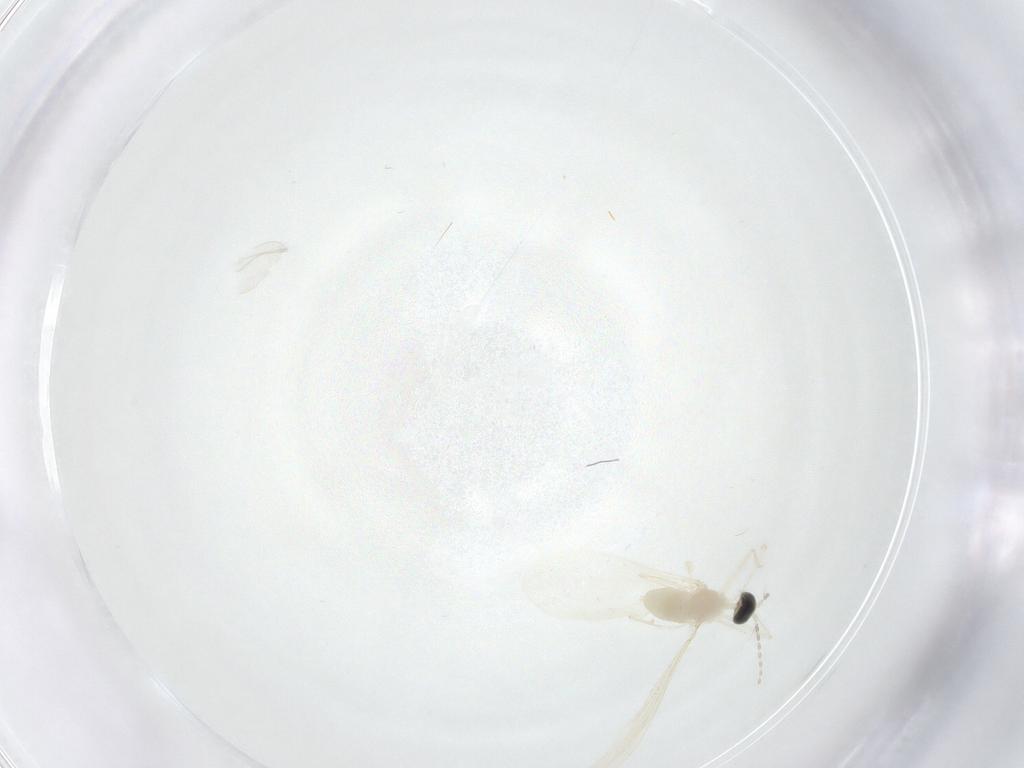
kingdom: Animalia
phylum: Arthropoda
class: Insecta
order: Diptera
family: Cecidomyiidae
